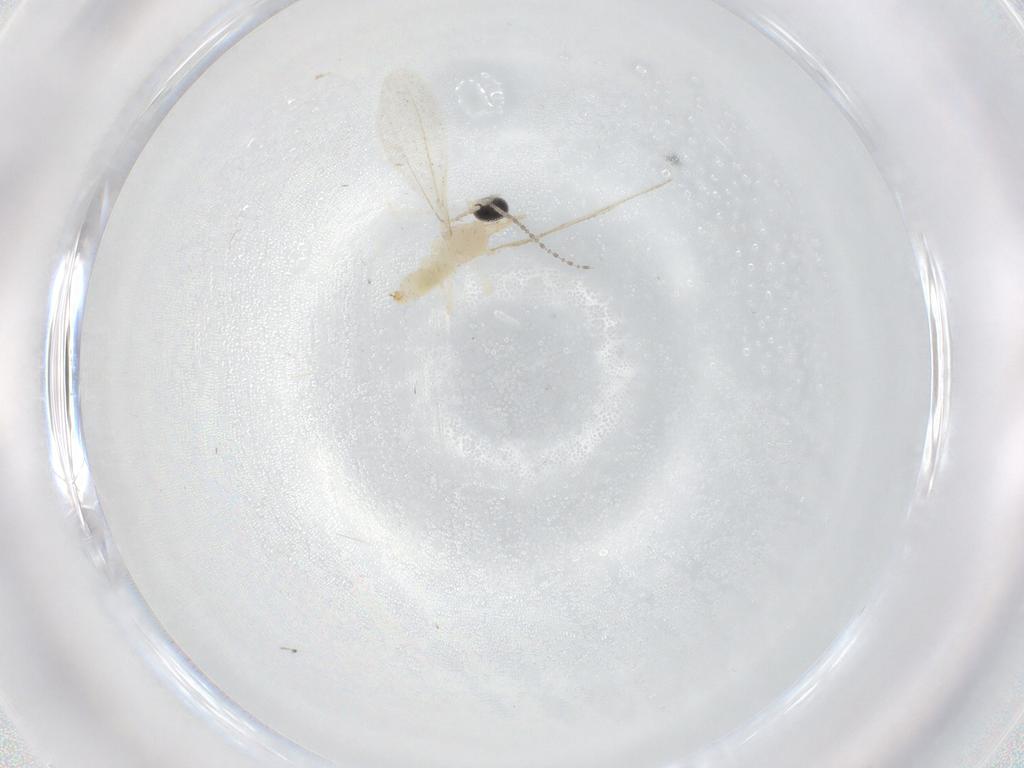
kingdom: Animalia
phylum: Arthropoda
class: Insecta
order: Diptera
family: Cecidomyiidae
